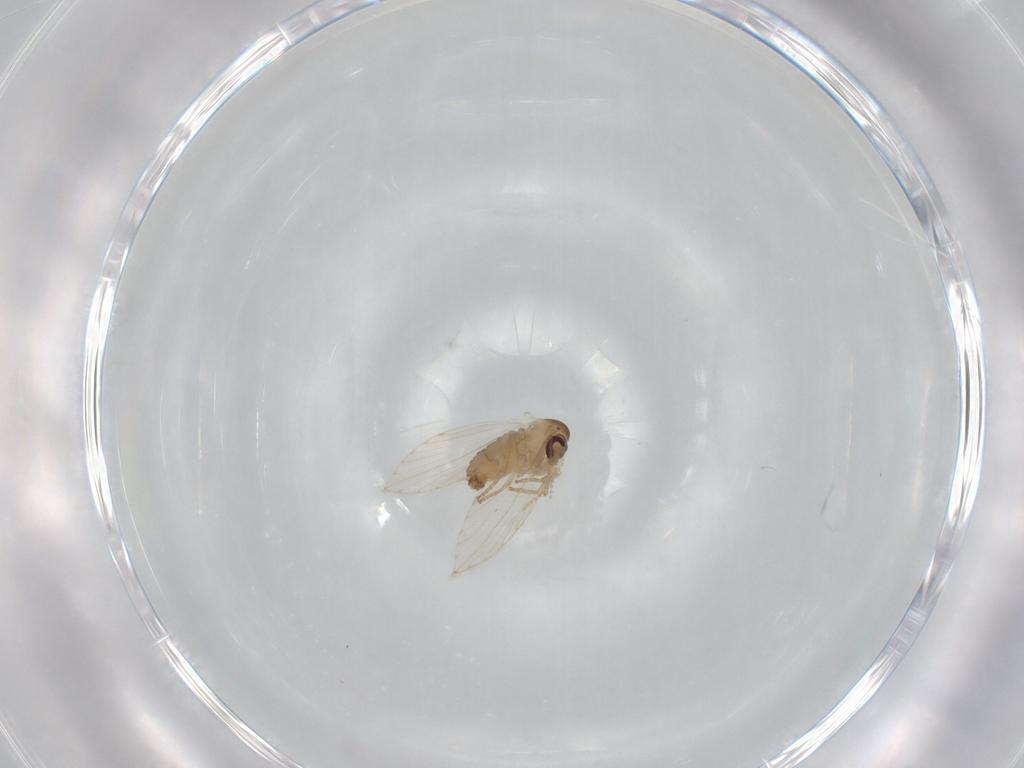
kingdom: Animalia
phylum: Arthropoda
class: Insecta
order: Diptera
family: Psychodidae
